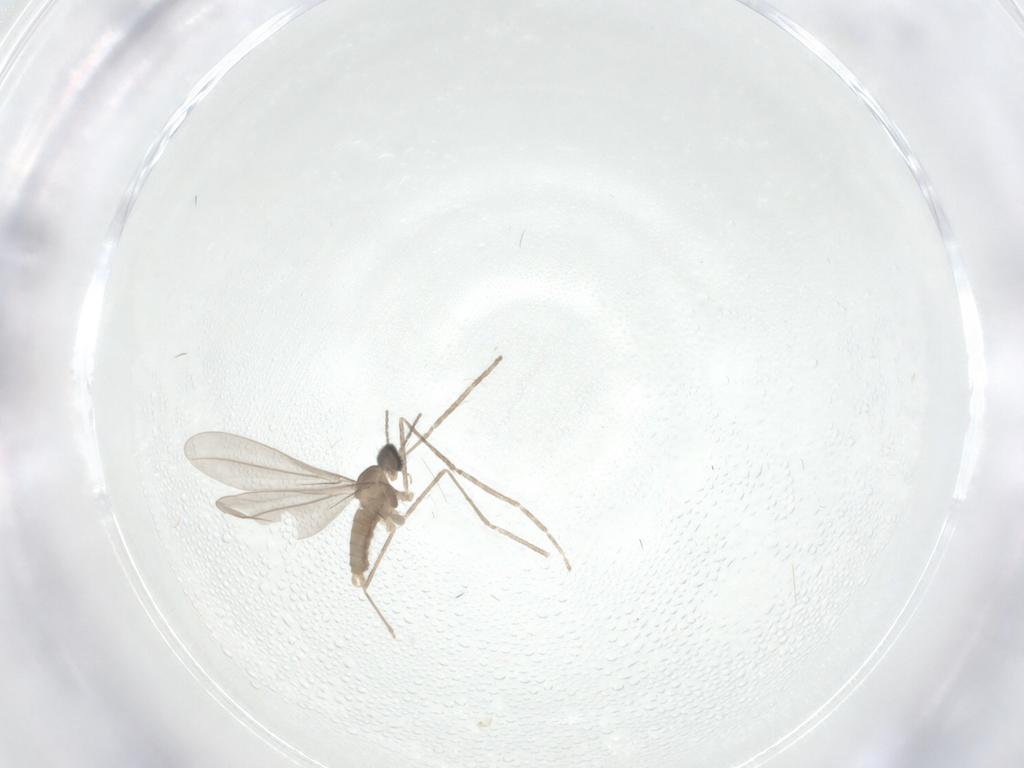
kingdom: Animalia
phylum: Arthropoda
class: Insecta
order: Diptera
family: Cecidomyiidae
